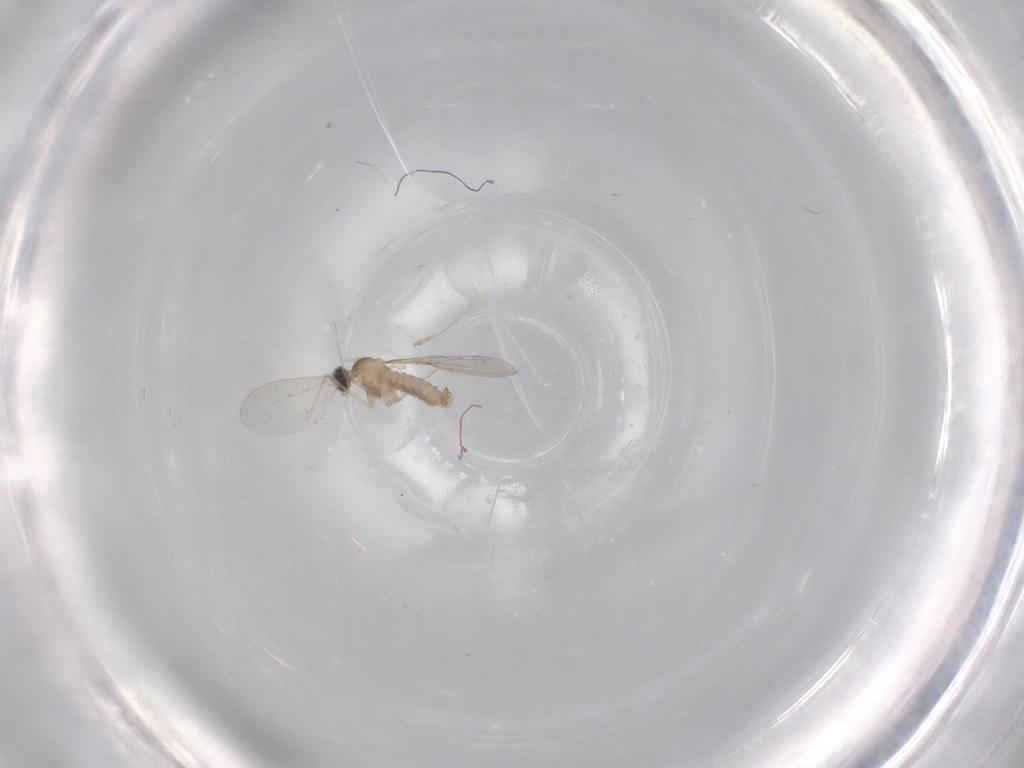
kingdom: Animalia
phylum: Arthropoda
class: Insecta
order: Diptera
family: Cecidomyiidae
